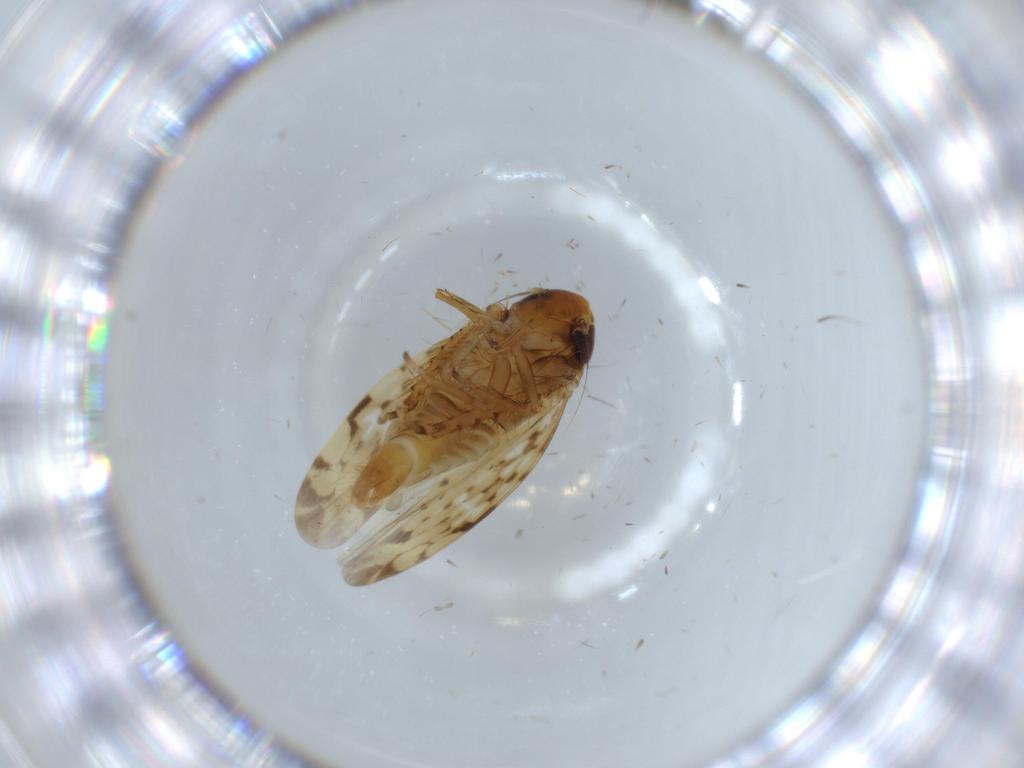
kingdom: Animalia
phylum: Arthropoda
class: Insecta
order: Hemiptera
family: Cicadellidae
